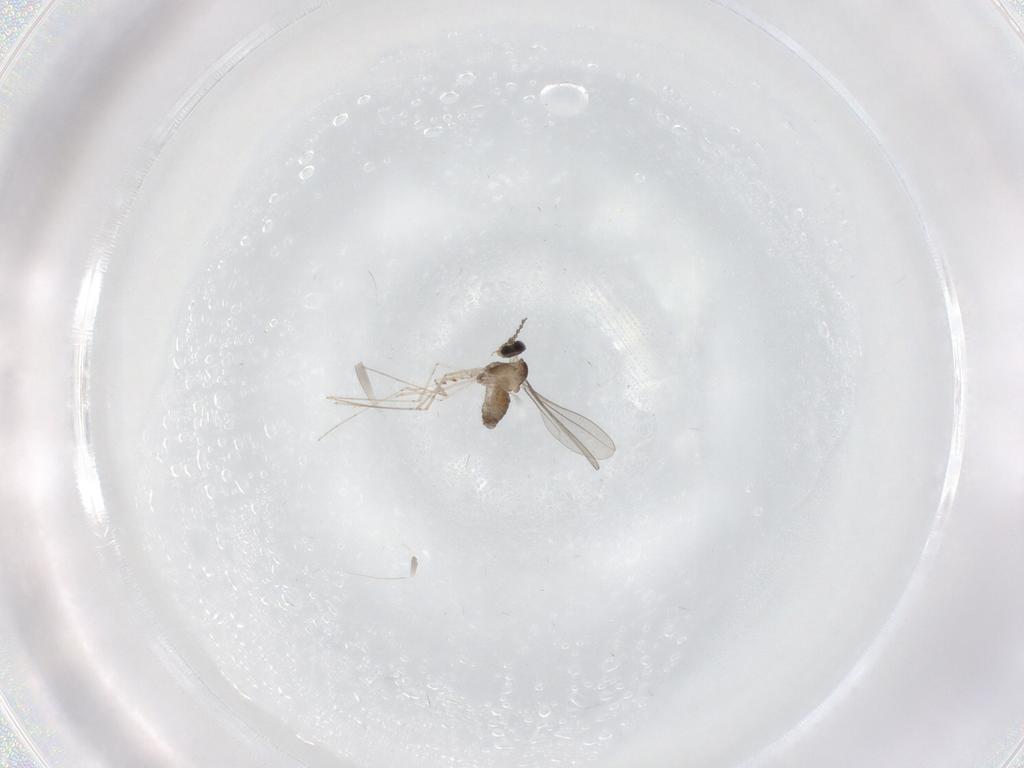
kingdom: Animalia
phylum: Arthropoda
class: Insecta
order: Diptera
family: Cecidomyiidae
